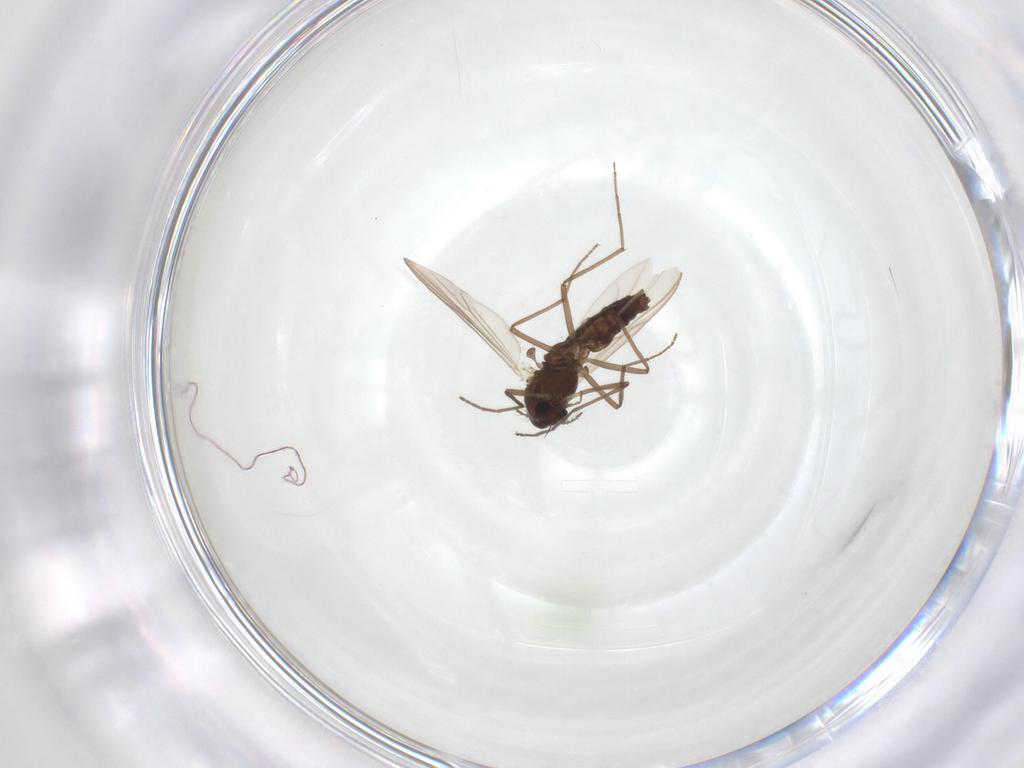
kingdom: Animalia
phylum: Arthropoda
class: Insecta
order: Diptera
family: Chironomidae
